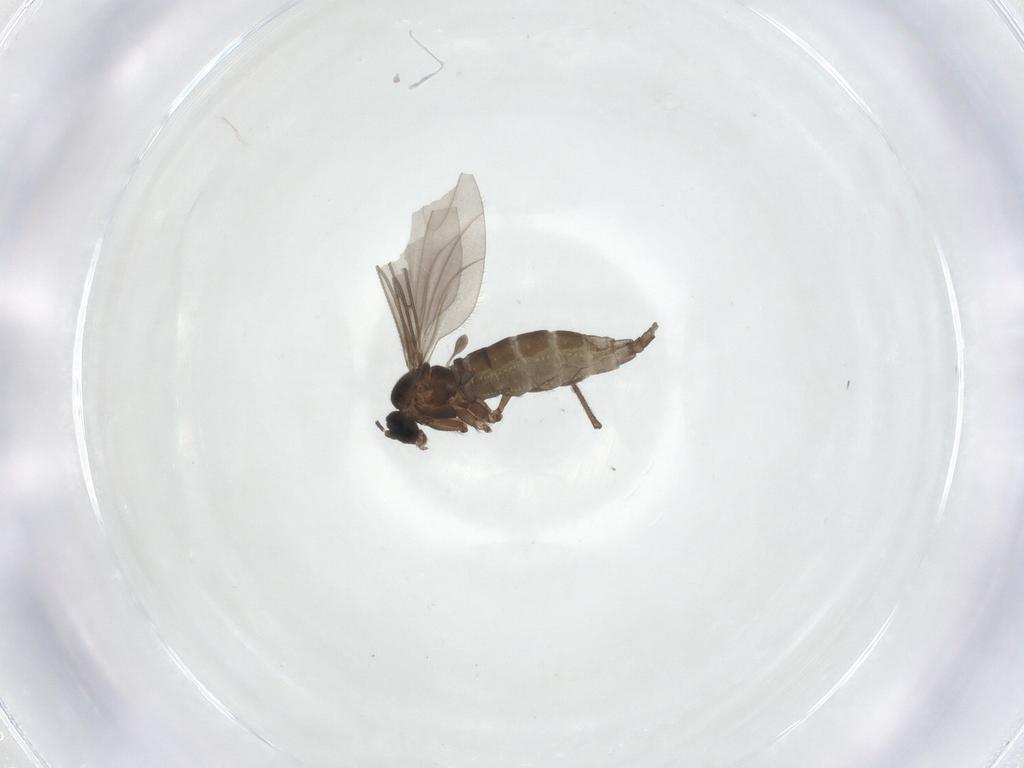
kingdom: Animalia
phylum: Arthropoda
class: Insecta
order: Diptera
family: Sciaridae
